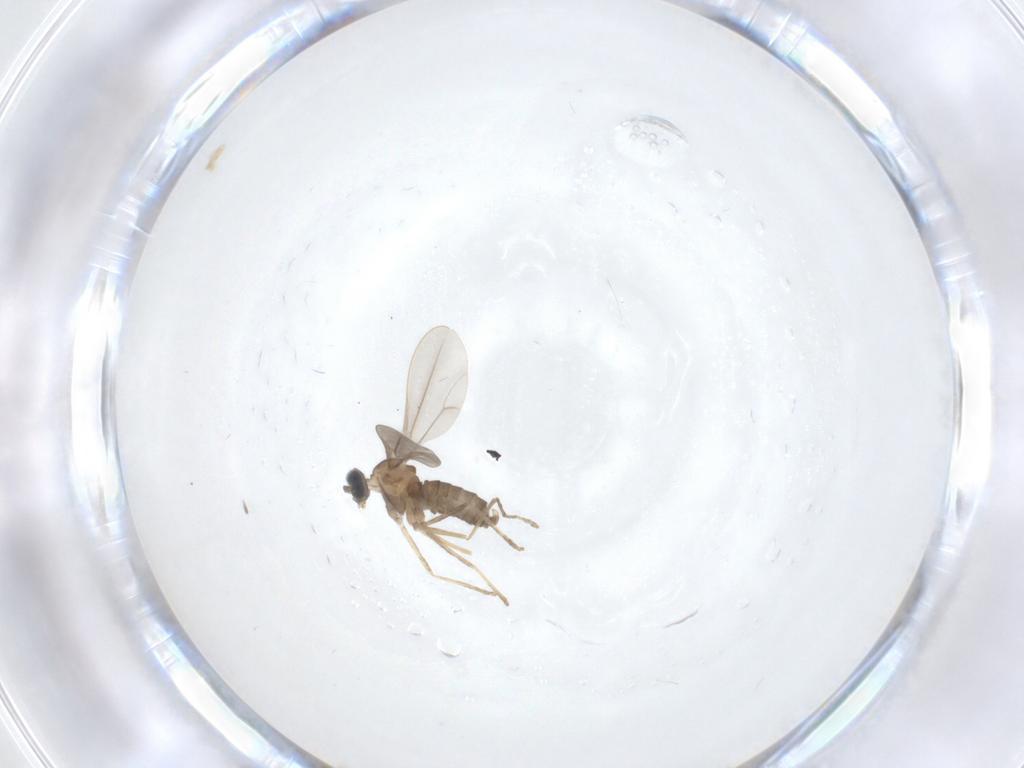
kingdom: Animalia
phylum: Arthropoda
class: Insecta
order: Diptera
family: Cecidomyiidae
